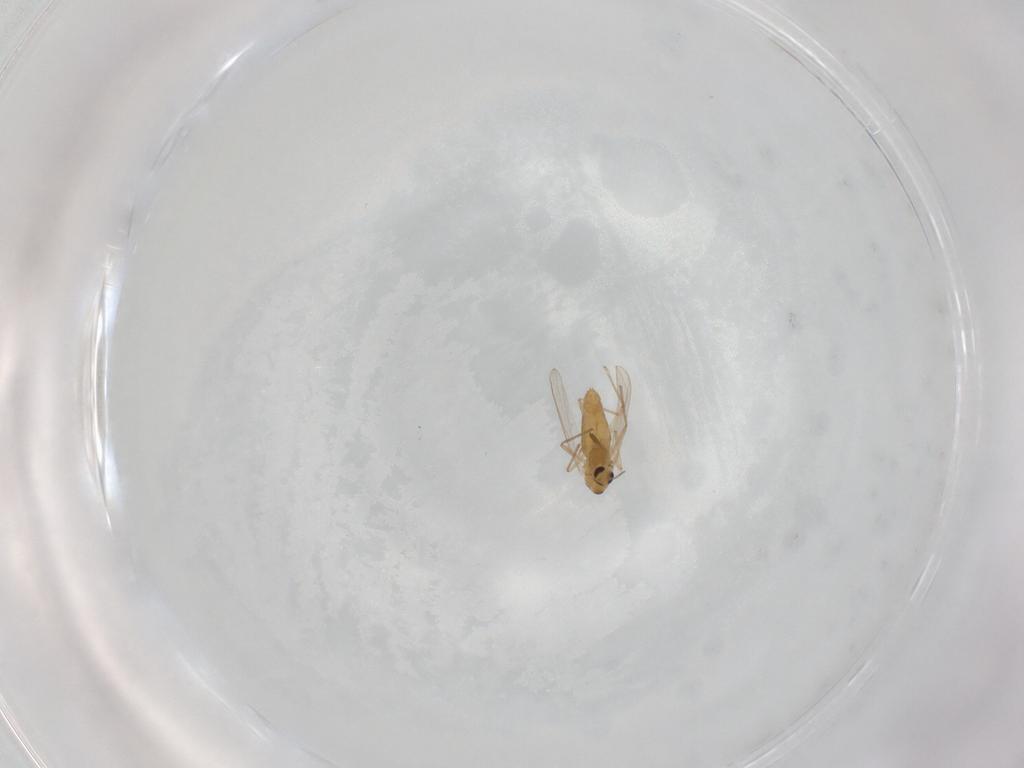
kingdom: Animalia
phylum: Arthropoda
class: Insecta
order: Diptera
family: Chironomidae
